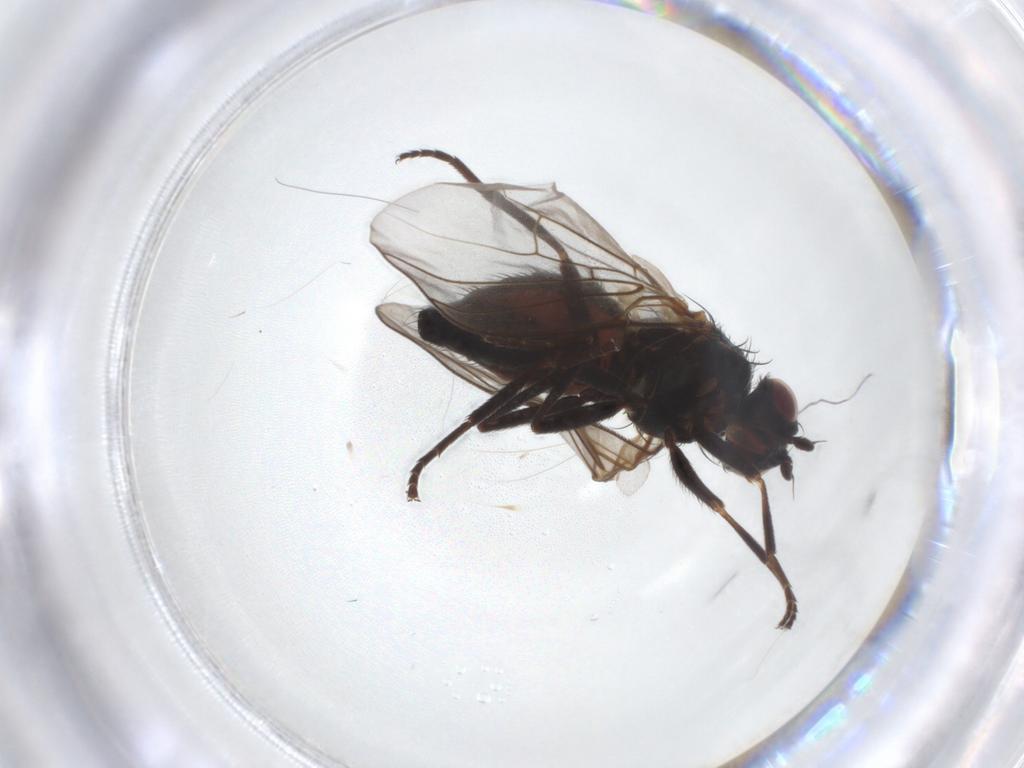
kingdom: Animalia
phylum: Arthropoda
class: Insecta
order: Diptera
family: Agromyzidae
